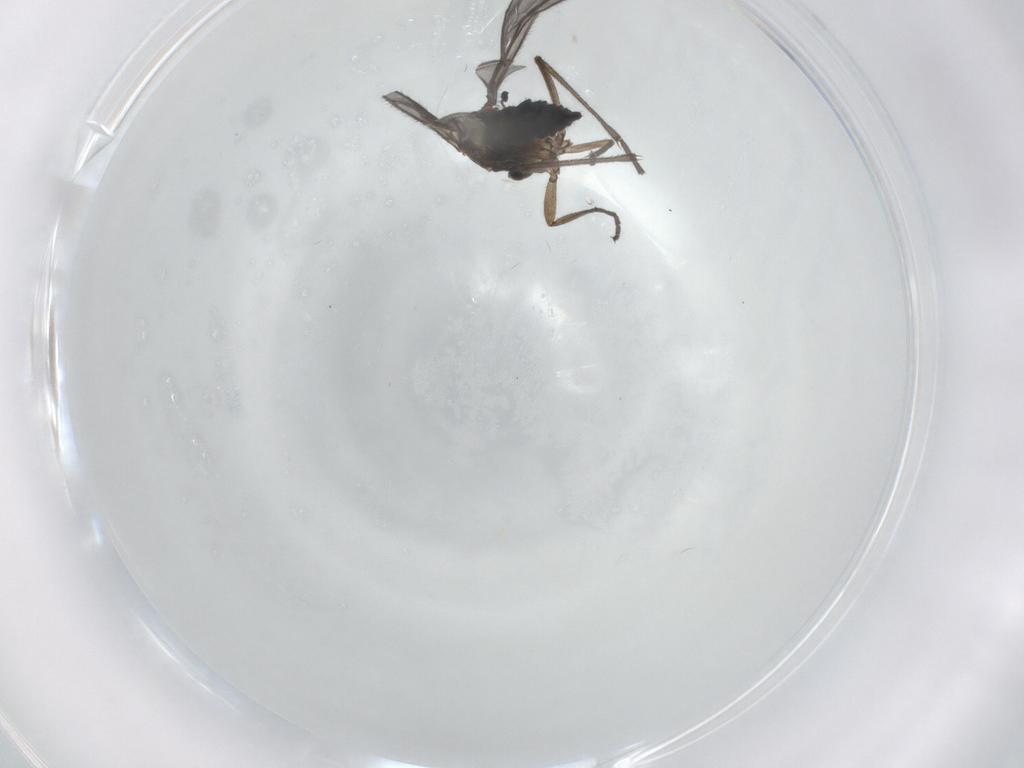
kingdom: Animalia
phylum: Arthropoda
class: Insecta
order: Diptera
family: Sciaridae
